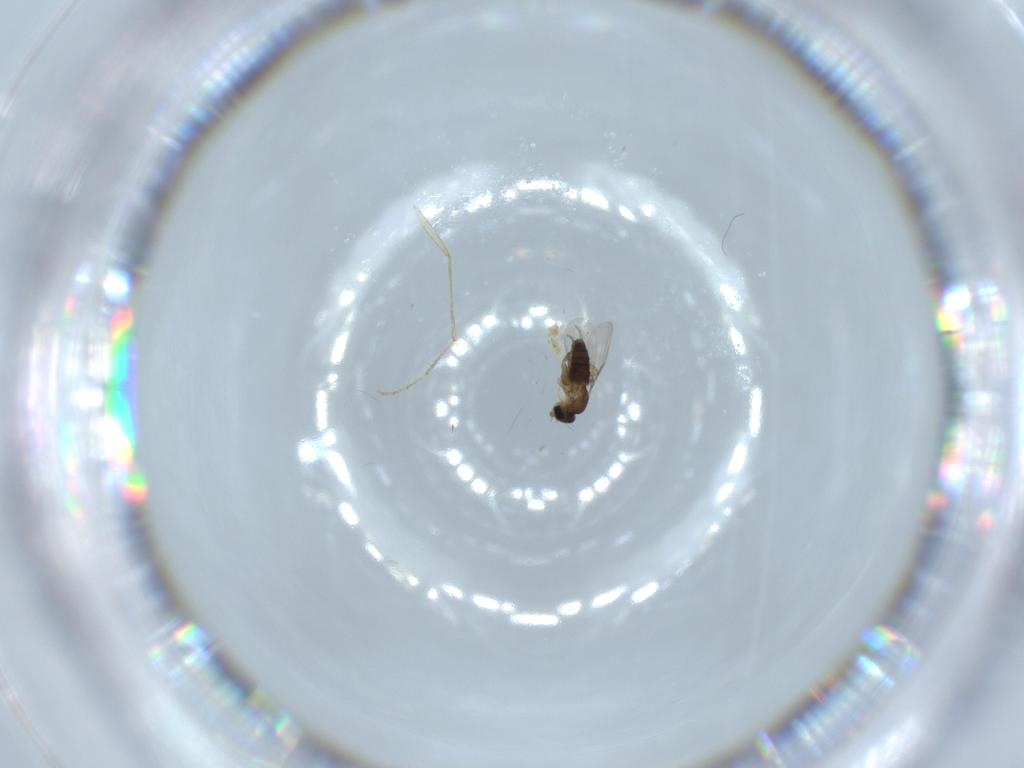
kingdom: Animalia
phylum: Arthropoda
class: Insecta
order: Diptera
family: Phoridae
